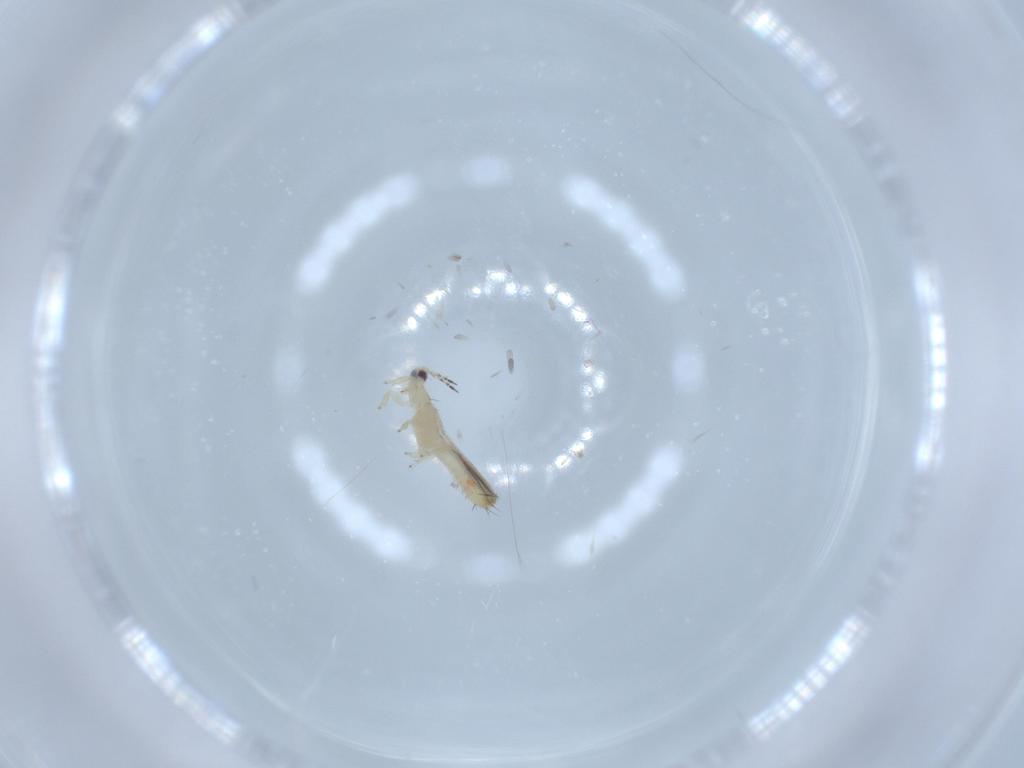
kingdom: Animalia
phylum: Arthropoda
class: Insecta
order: Thysanoptera
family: Thripidae
